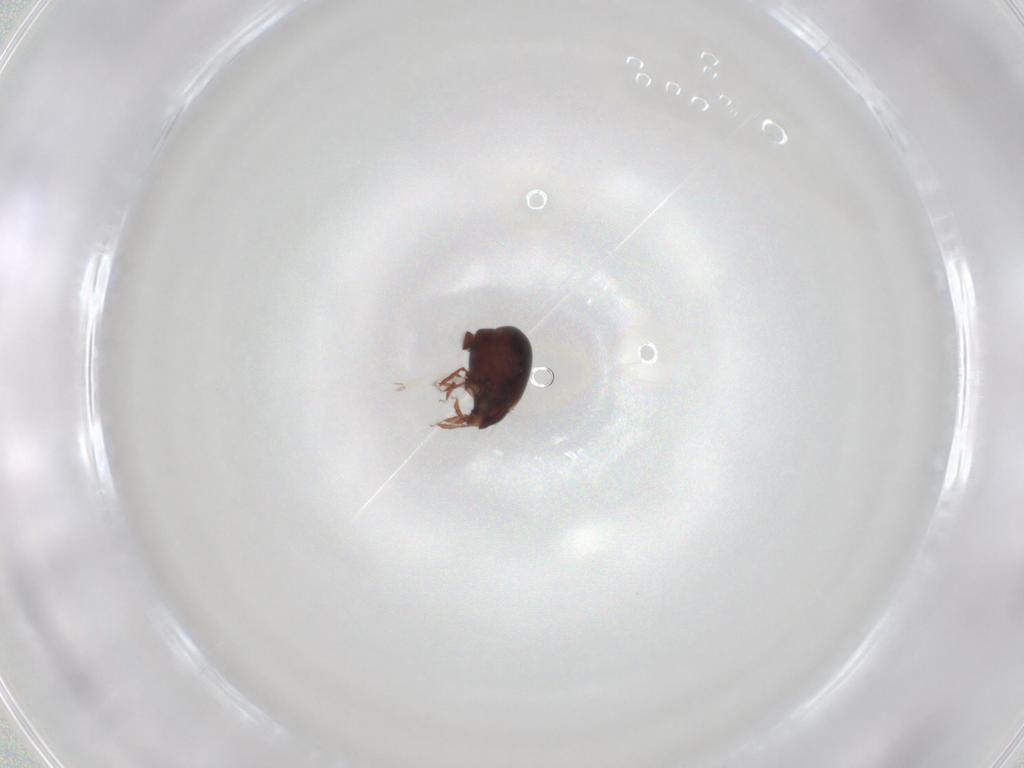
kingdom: Animalia
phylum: Arthropoda
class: Arachnida
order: Sarcoptiformes
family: Humerobatidae
